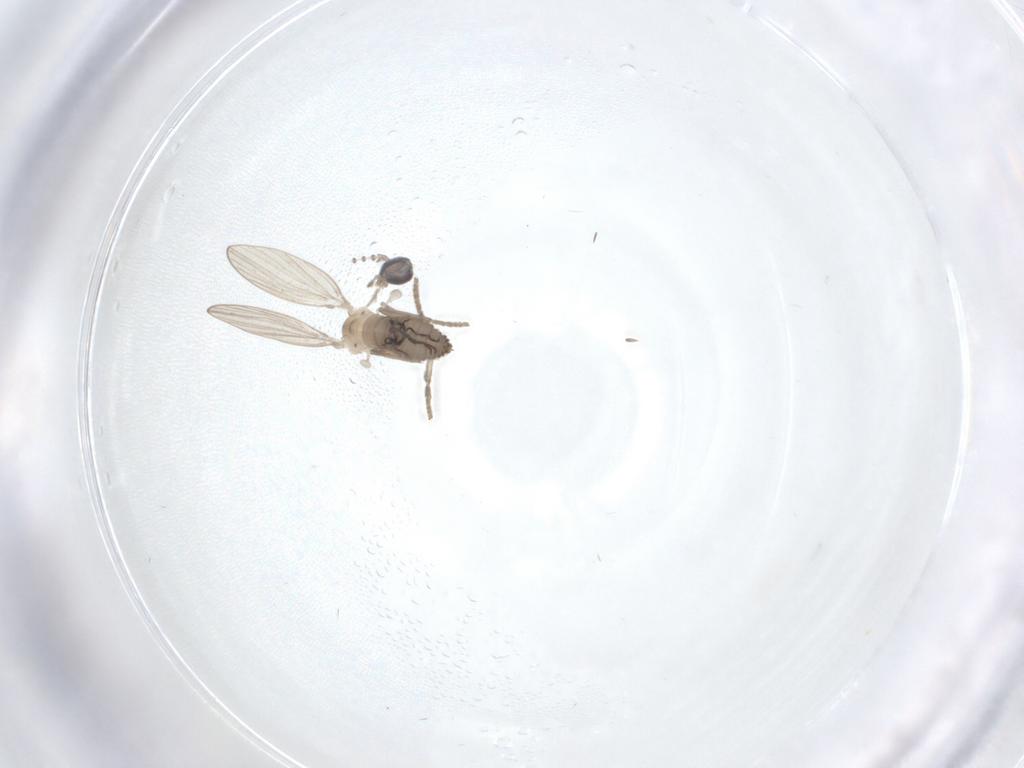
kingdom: Animalia
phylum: Arthropoda
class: Insecta
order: Diptera
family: Psychodidae
